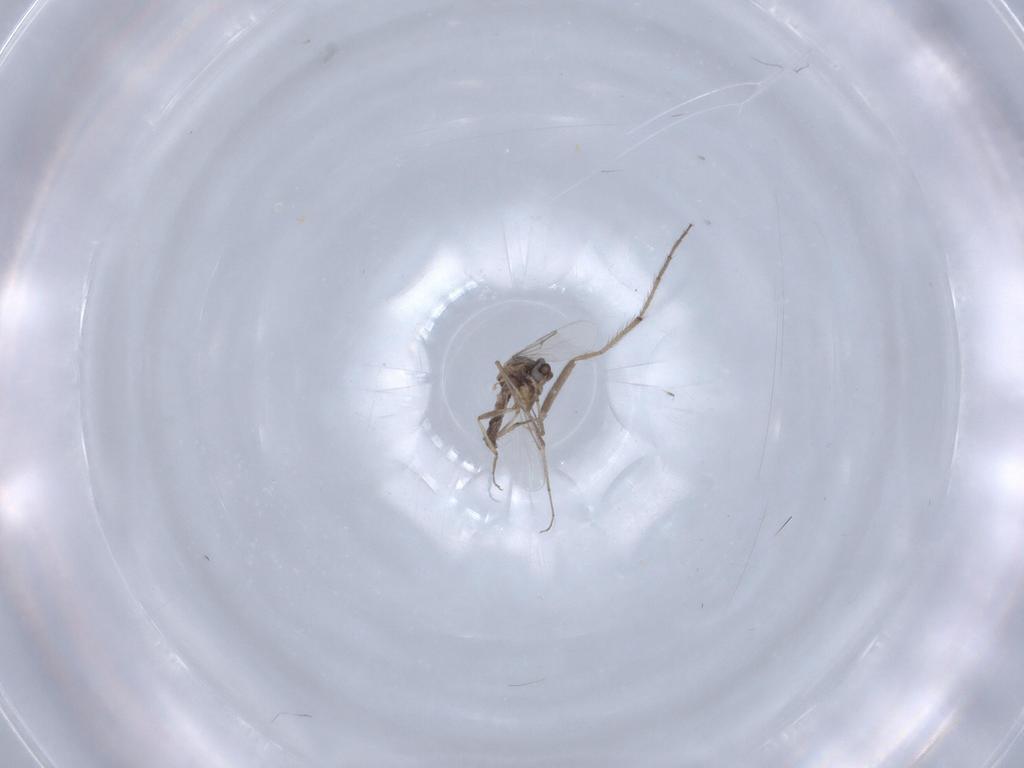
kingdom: Animalia
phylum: Arthropoda
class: Insecta
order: Diptera
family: Chironomidae
